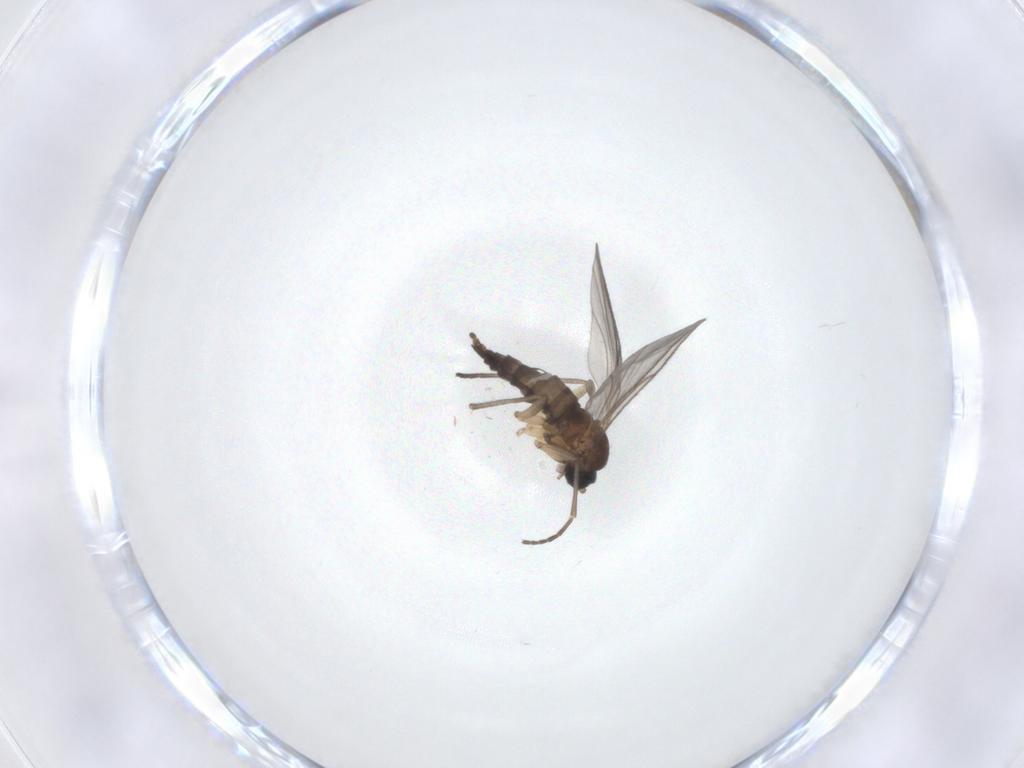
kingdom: Animalia
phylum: Arthropoda
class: Insecta
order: Diptera
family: Sciaridae
